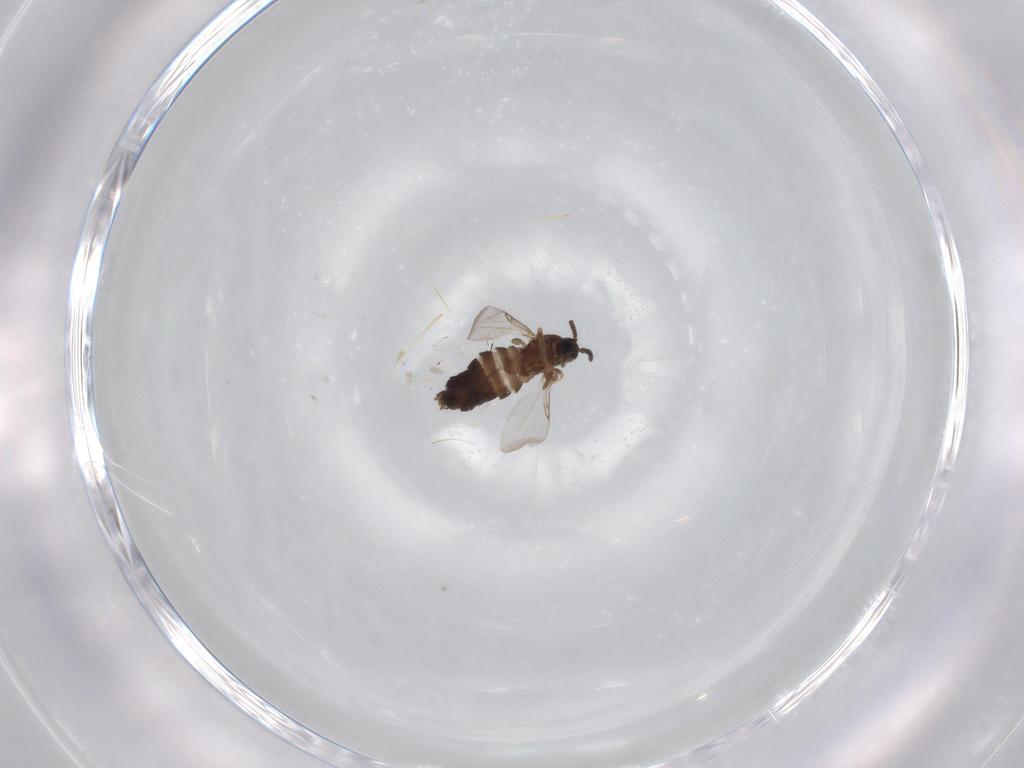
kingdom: Animalia
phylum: Arthropoda
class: Insecta
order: Diptera
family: Scatopsidae
